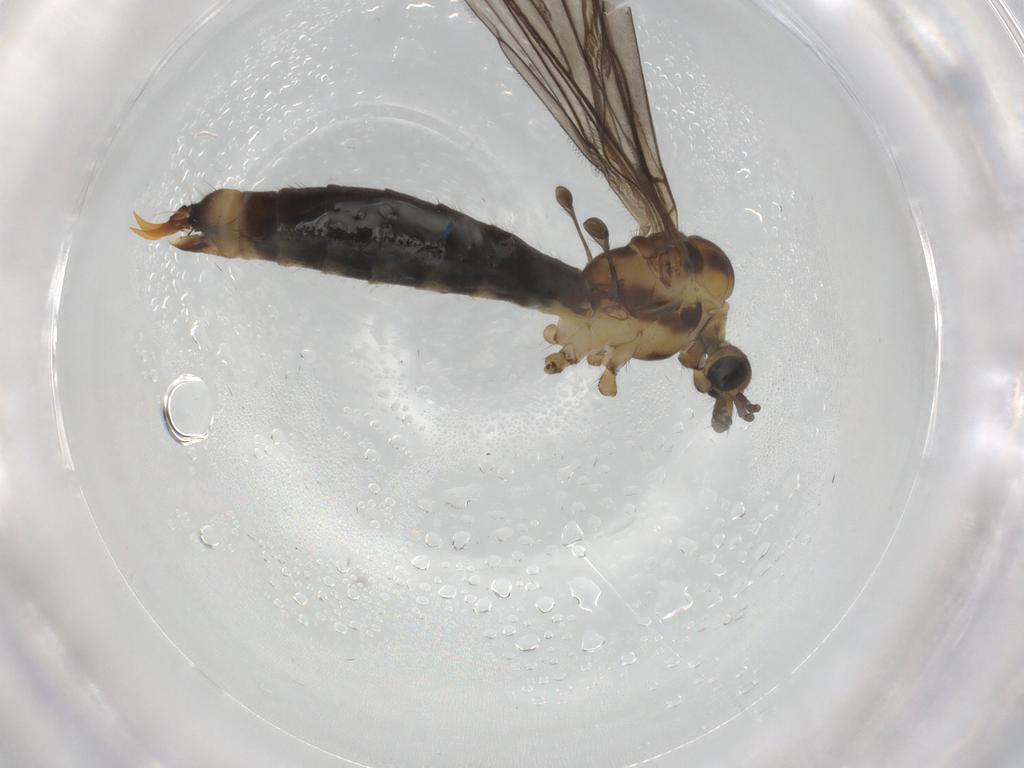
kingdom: Animalia
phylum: Arthropoda
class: Insecta
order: Diptera
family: Limoniidae
